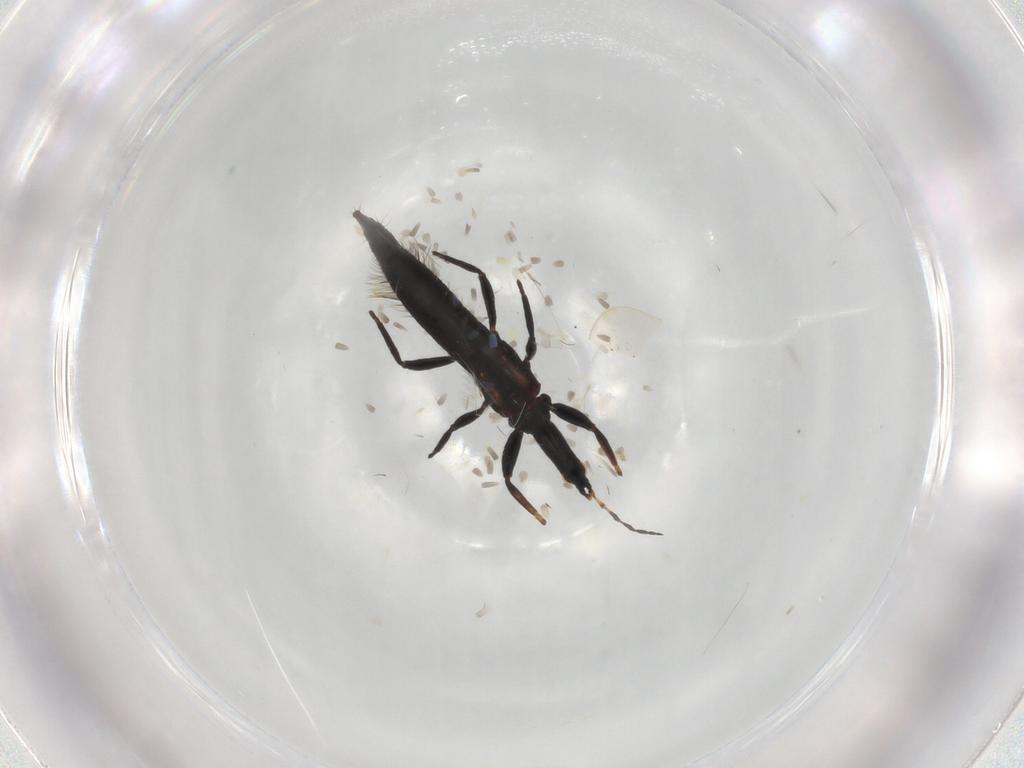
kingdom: Animalia
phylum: Arthropoda
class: Insecta
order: Thysanoptera
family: Phlaeothripidae
